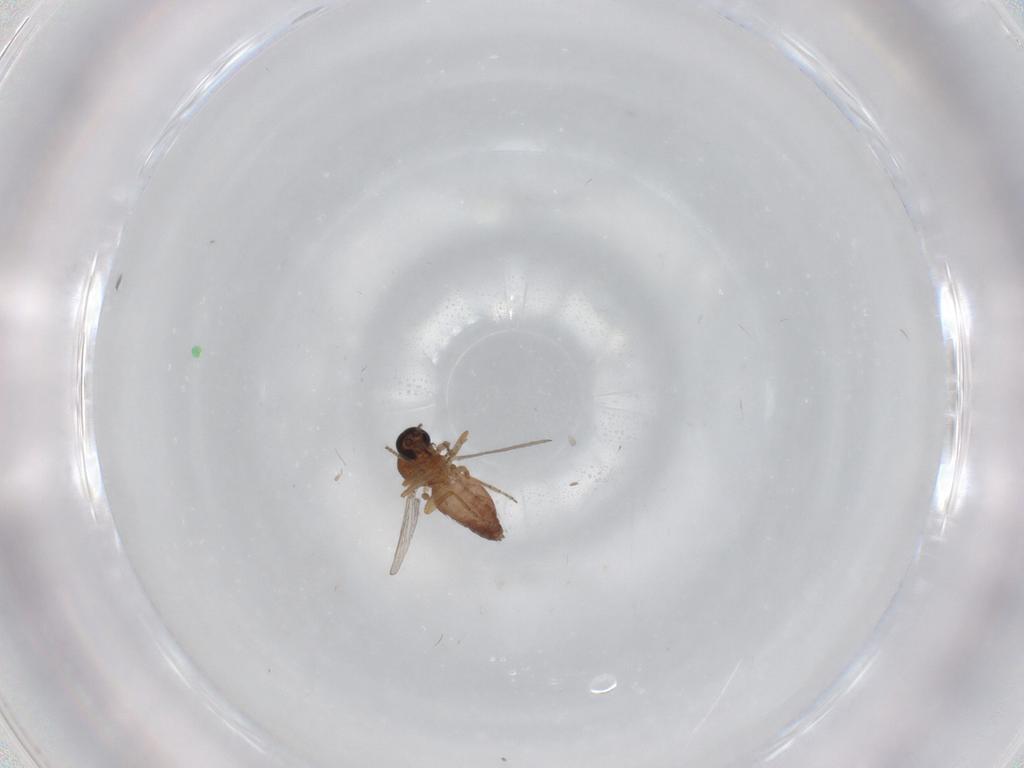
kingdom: Animalia
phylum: Arthropoda
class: Insecta
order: Diptera
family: Ceratopogonidae
